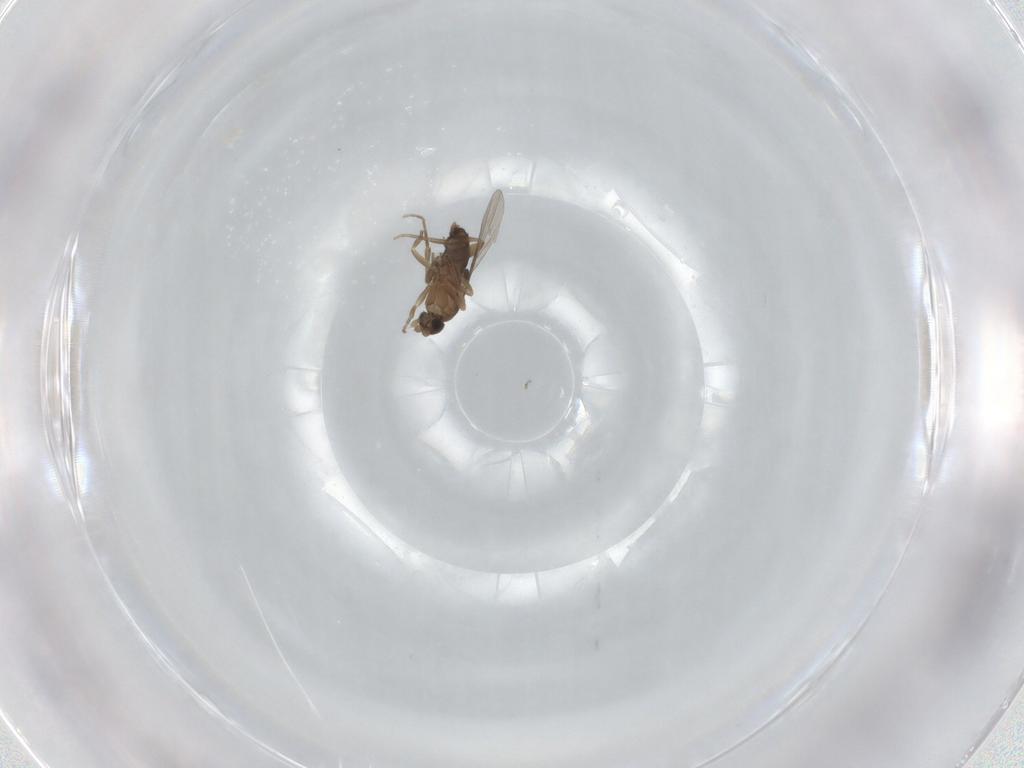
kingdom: Animalia
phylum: Arthropoda
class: Insecta
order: Diptera
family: Phoridae
